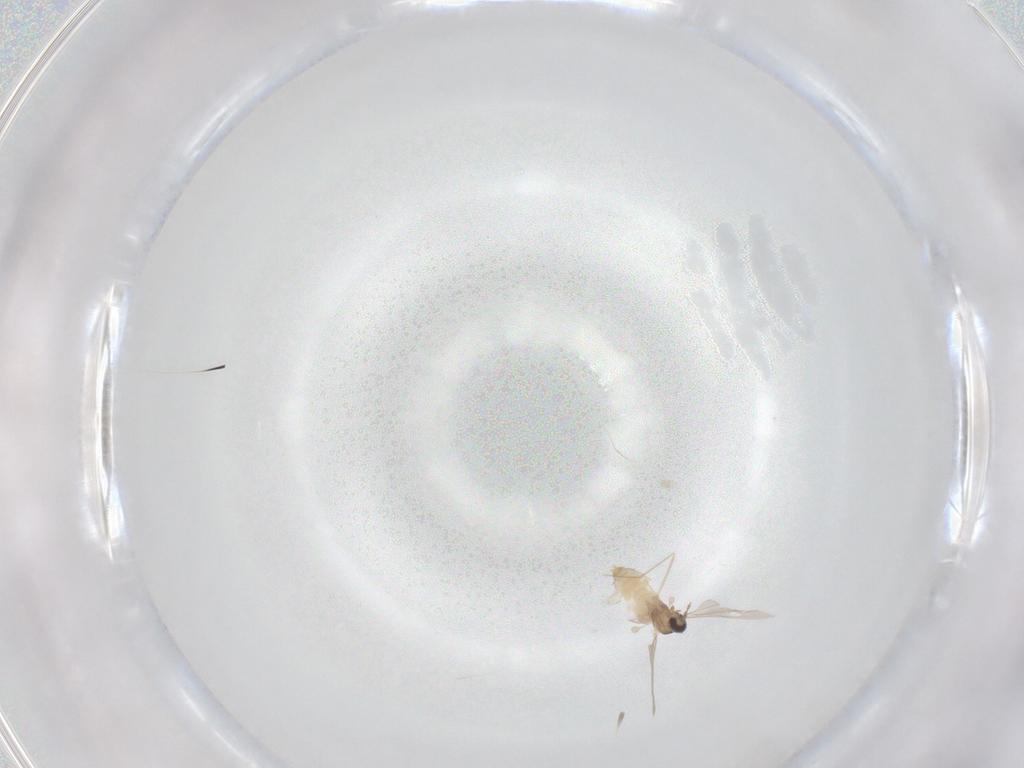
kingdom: Animalia
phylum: Arthropoda
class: Insecta
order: Diptera
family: Cecidomyiidae
